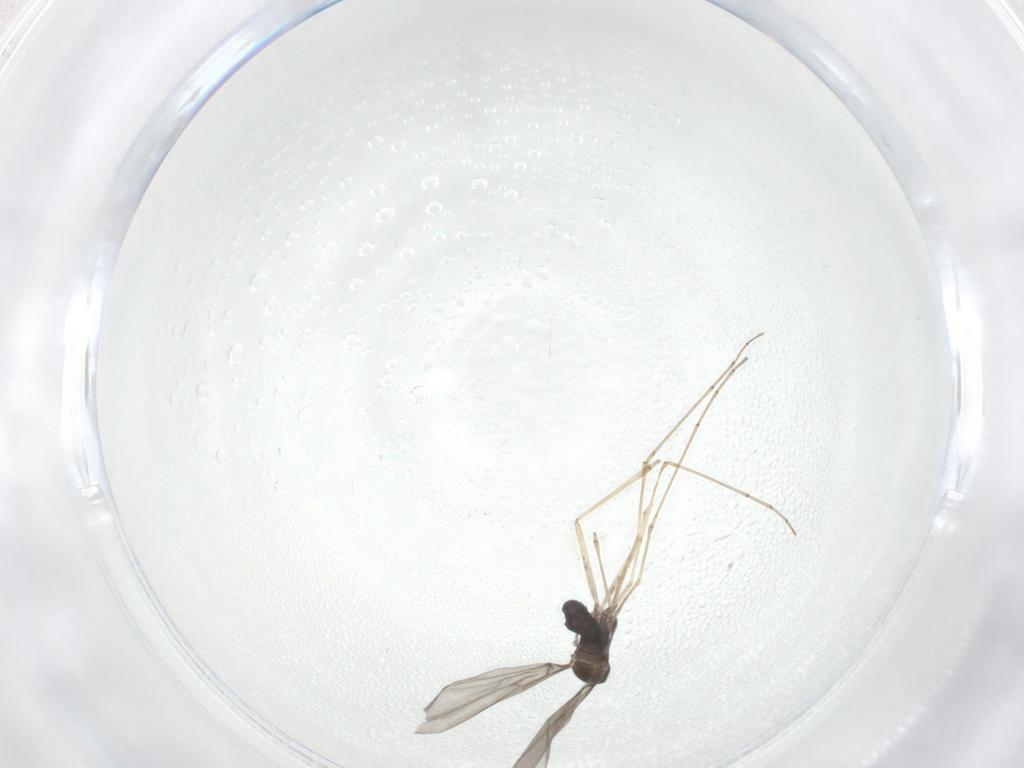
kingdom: Animalia
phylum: Arthropoda
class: Insecta
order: Diptera
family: Cecidomyiidae
